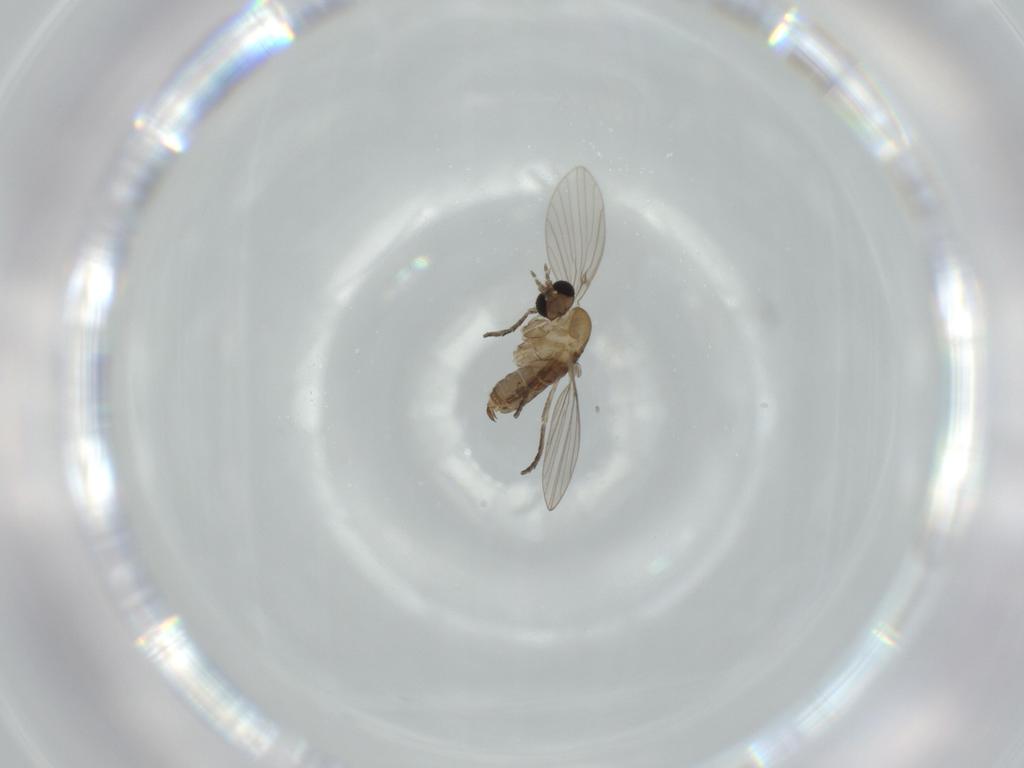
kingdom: Animalia
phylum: Arthropoda
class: Insecta
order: Diptera
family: Psychodidae
